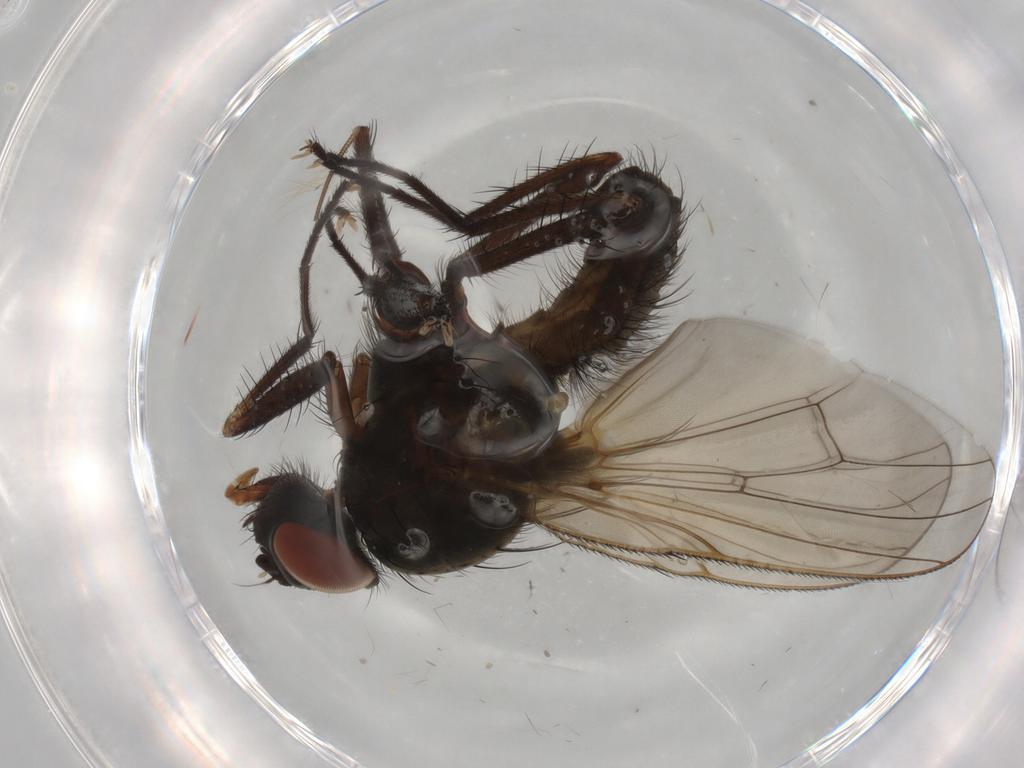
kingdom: Animalia
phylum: Arthropoda
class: Insecta
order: Diptera
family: Anthomyiidae
